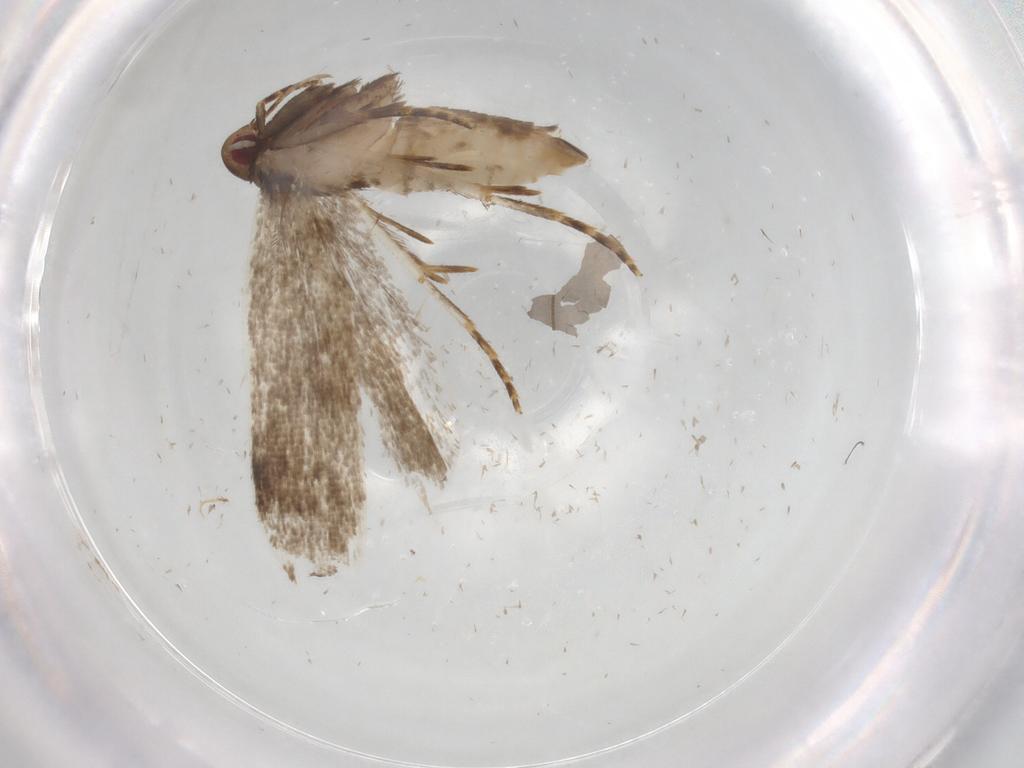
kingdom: Animalia
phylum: Arthropoda
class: Insecta
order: Lepidoptera
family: Gelechiidae
